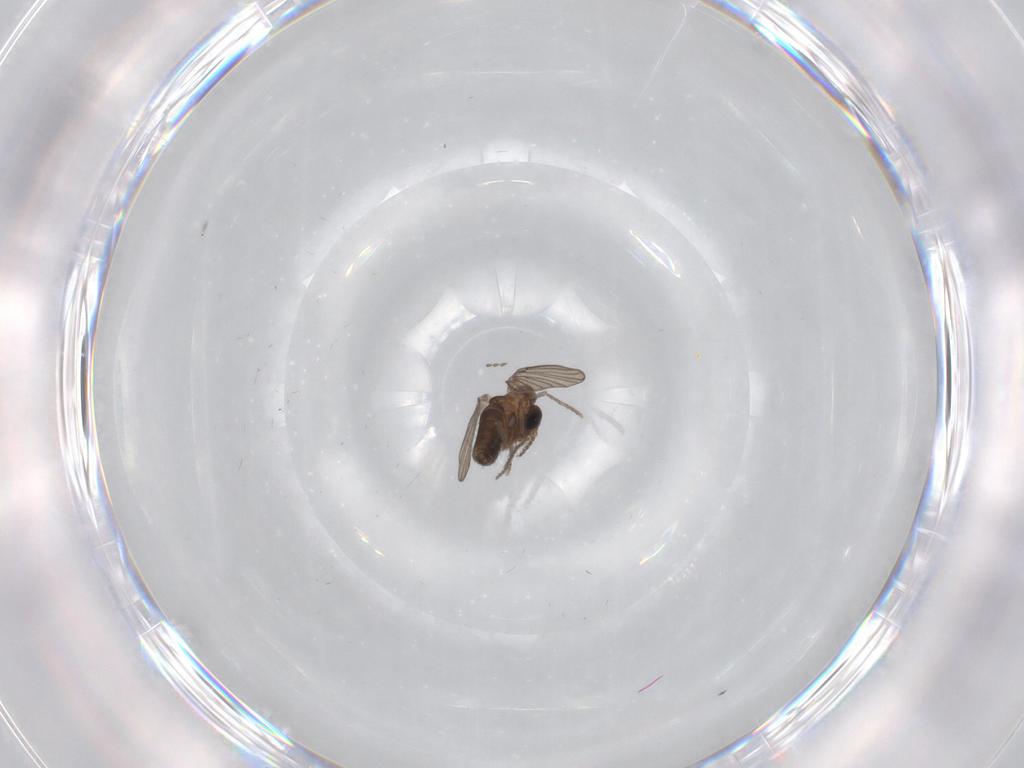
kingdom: Animalia
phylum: Arthropoda
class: Insecta
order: Diptera
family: Chironomidae
